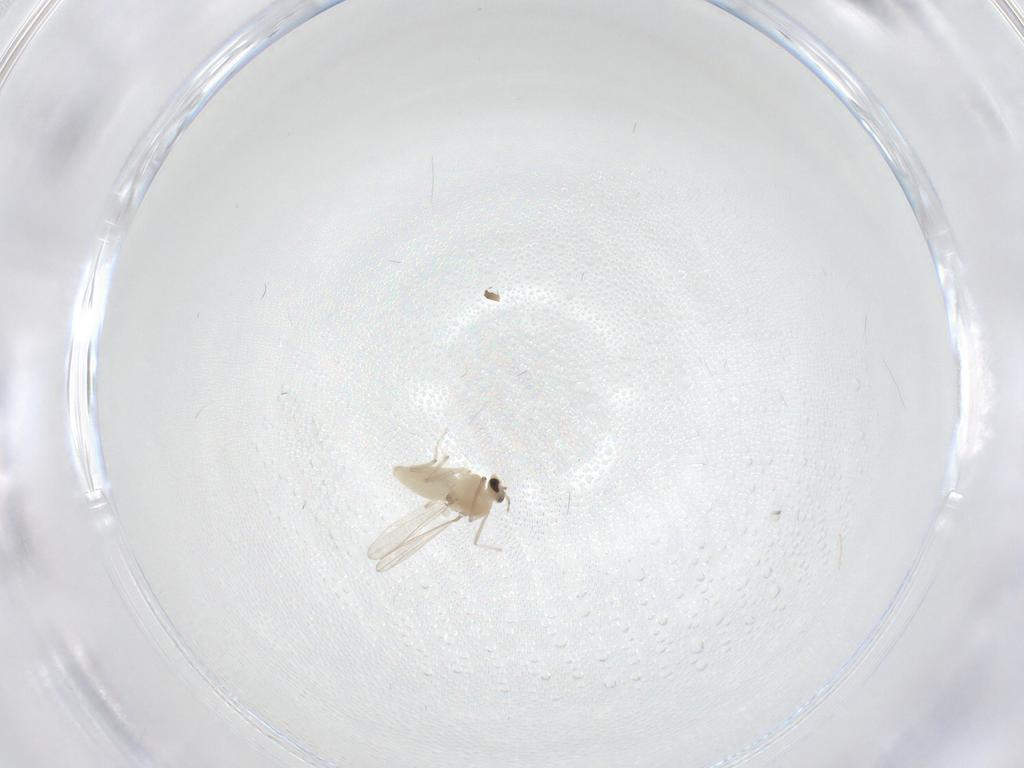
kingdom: Animalia
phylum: Arthropoda
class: Insecta
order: Diptera
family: Chironomidae
